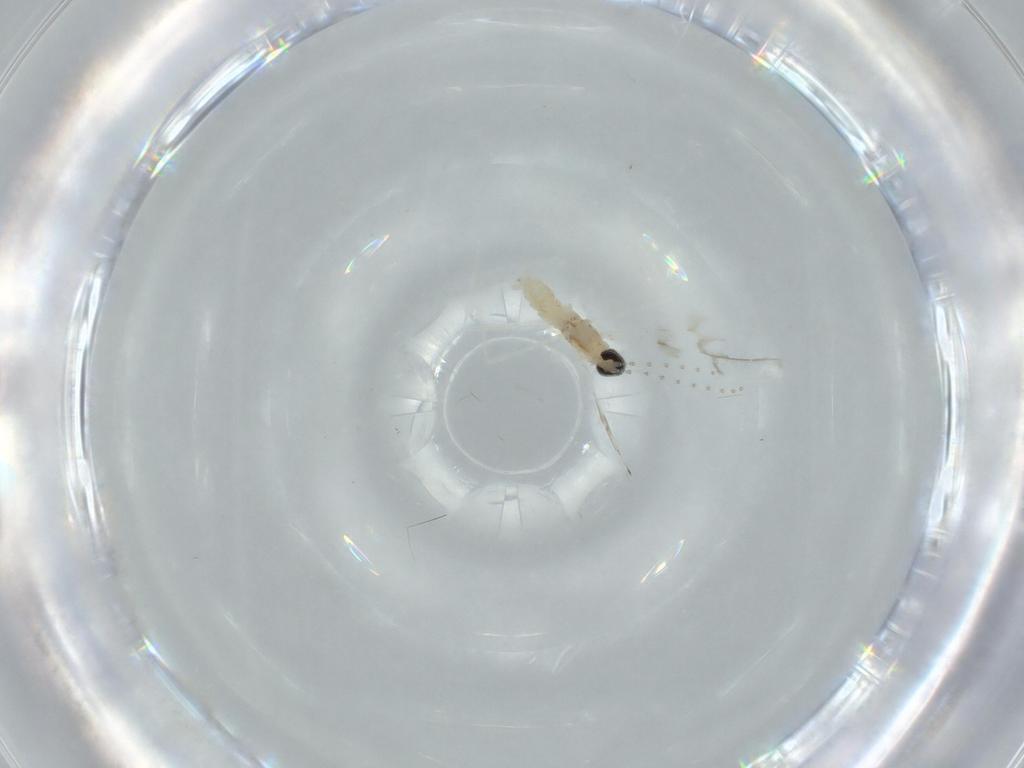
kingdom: Animalia
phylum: Arthropoda
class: Insecta
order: Diptera
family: Cecidomyiidae
